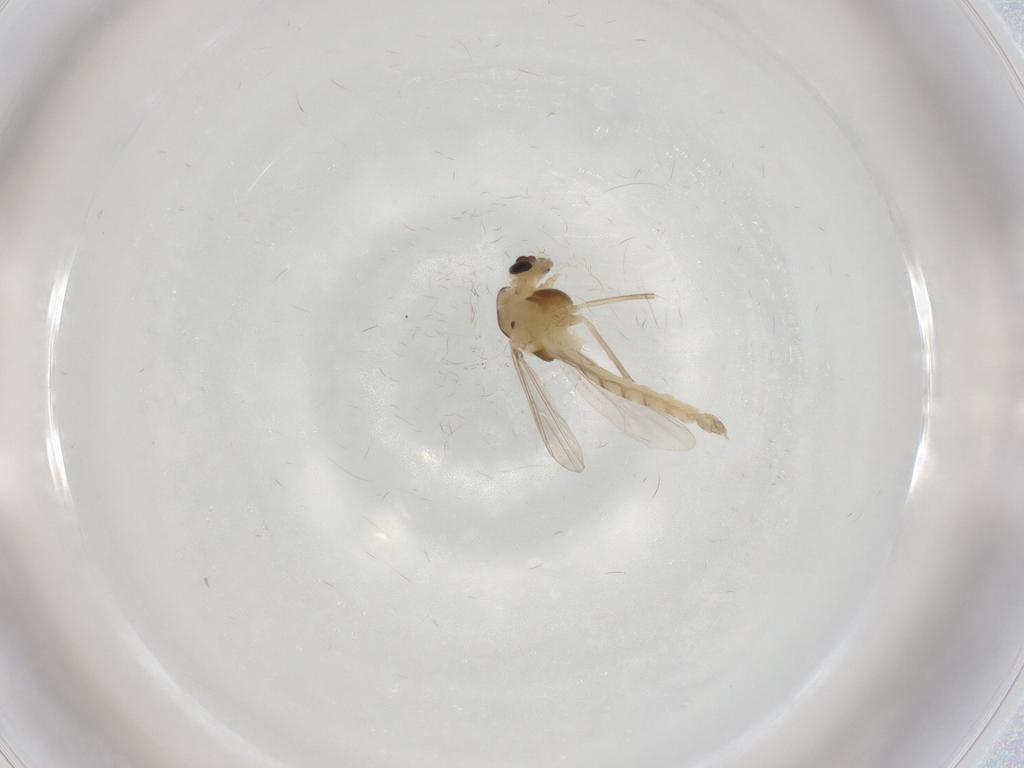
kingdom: Animalia
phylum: Arthropoda
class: Insecta
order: Diptera
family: Chironomidae
